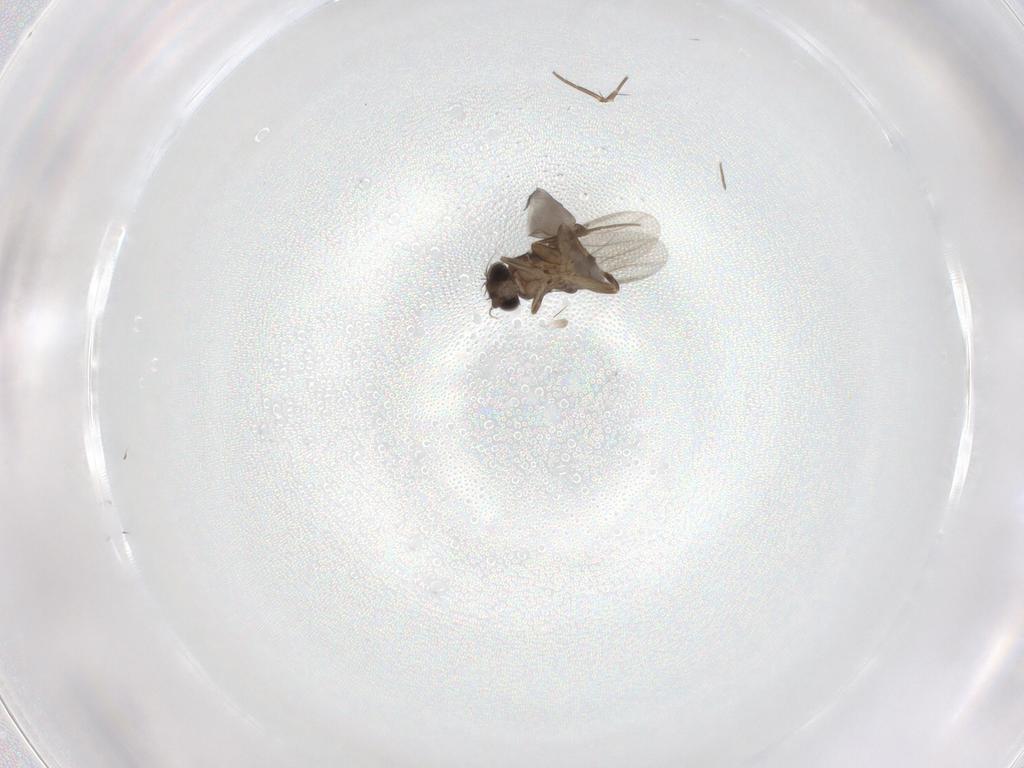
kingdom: Animalia
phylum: Arthropoda
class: Insecta
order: Diptera
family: Phoridae
